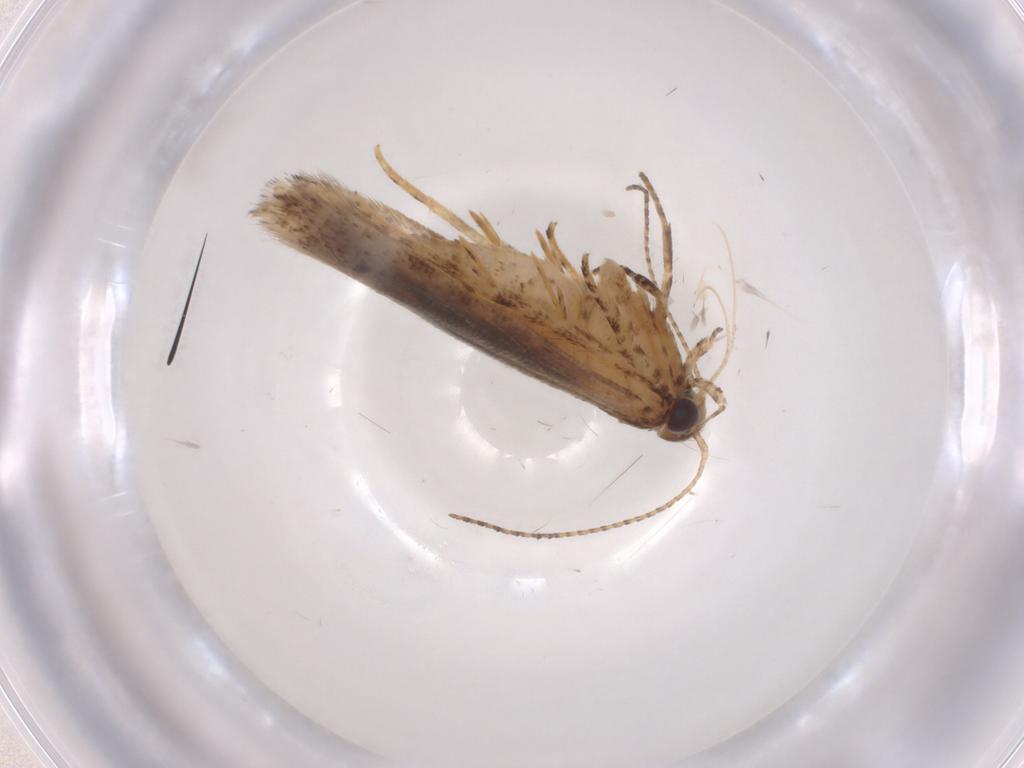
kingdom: Animalia
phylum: Arthropoda
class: Insecta
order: Lepidoptera
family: Gelechiidae
